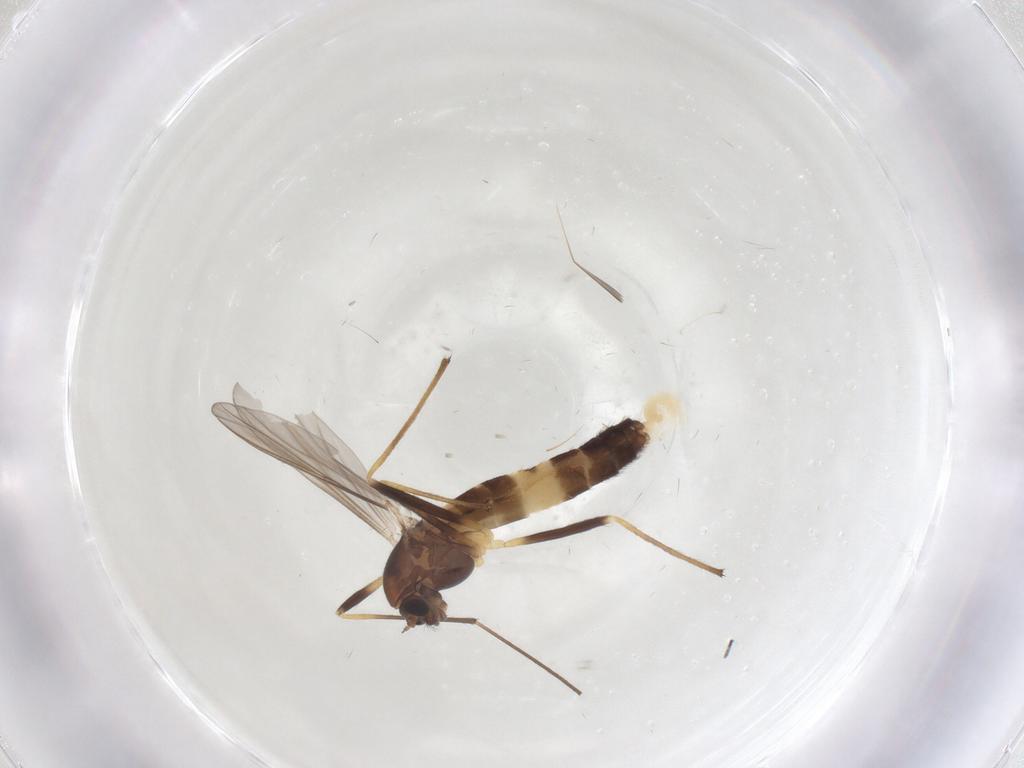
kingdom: Animalia
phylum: Arthropoda
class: Insecta
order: Diptera
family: Chironomidae
